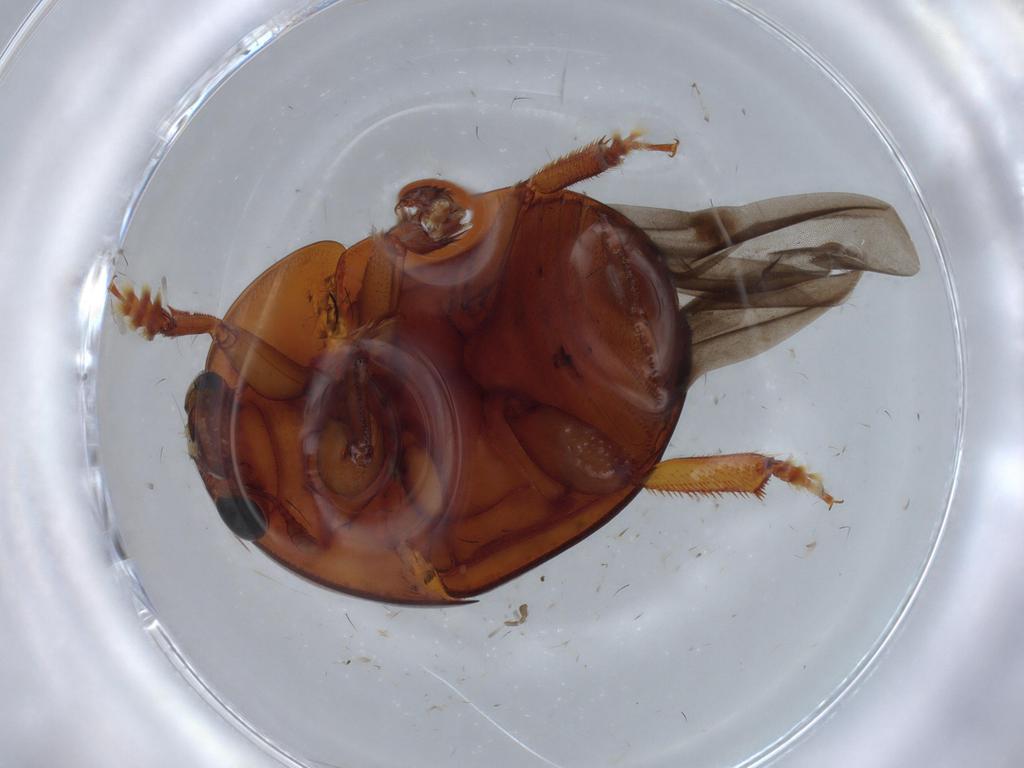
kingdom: Animalia
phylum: Arthropoda
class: Insecta
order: Coleoptera
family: Nitidulidae
